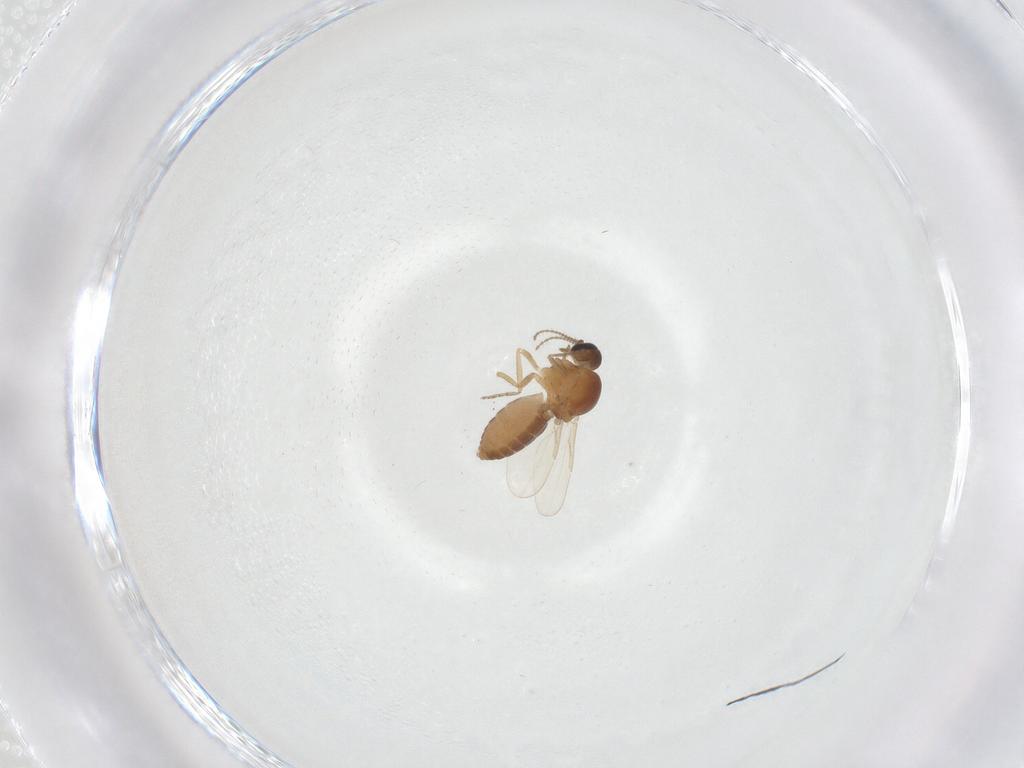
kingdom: Animalia
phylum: Arthropoda
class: Insecta
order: Diptera
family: Ceratopogonidae
